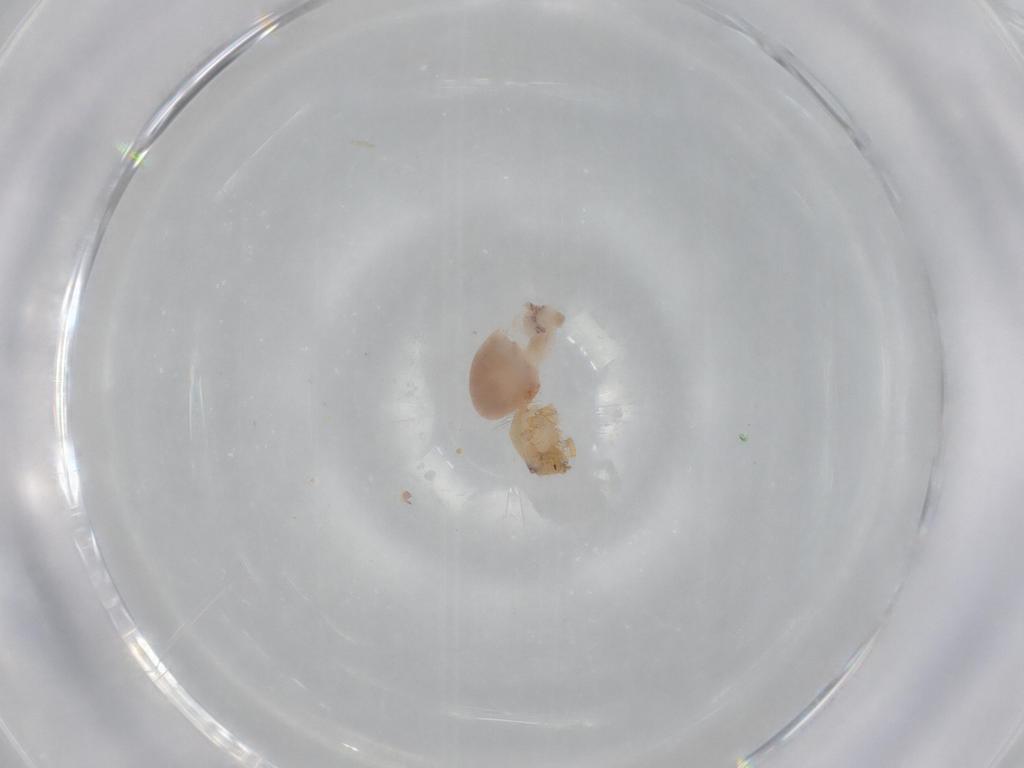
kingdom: Animalia
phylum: Arthropoda
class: Arachnida
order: Araneae
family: Oonopidae
